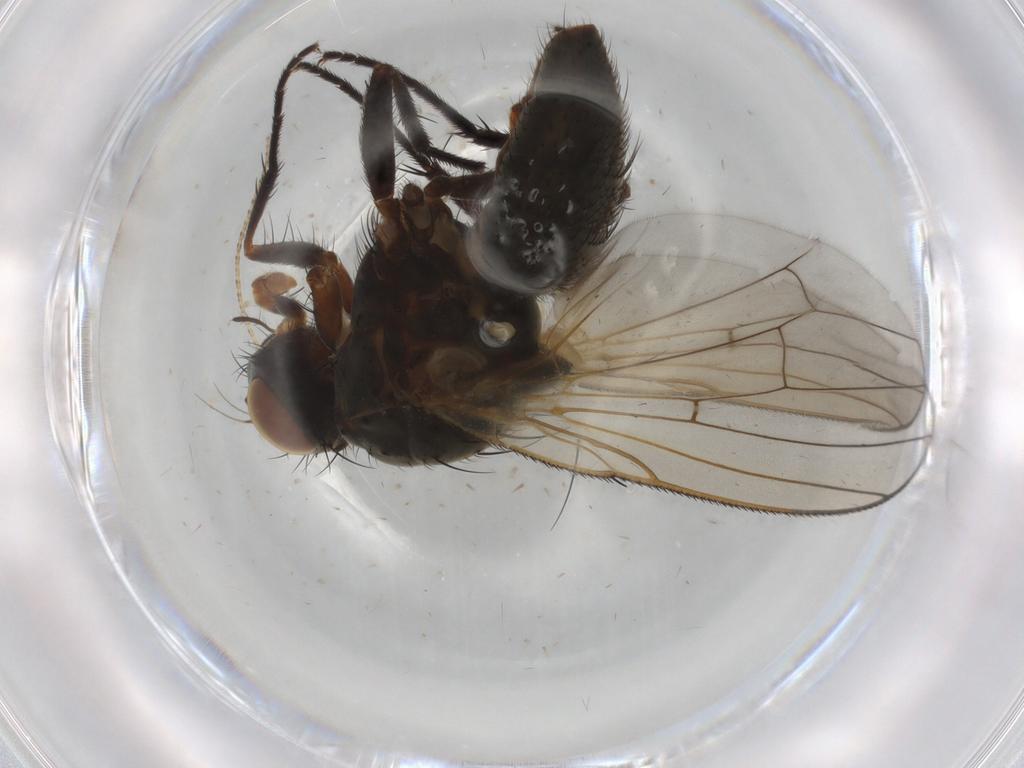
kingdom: Animalia
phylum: Arthropoda
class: Insecta
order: Diptera
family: Anthomyiidae
